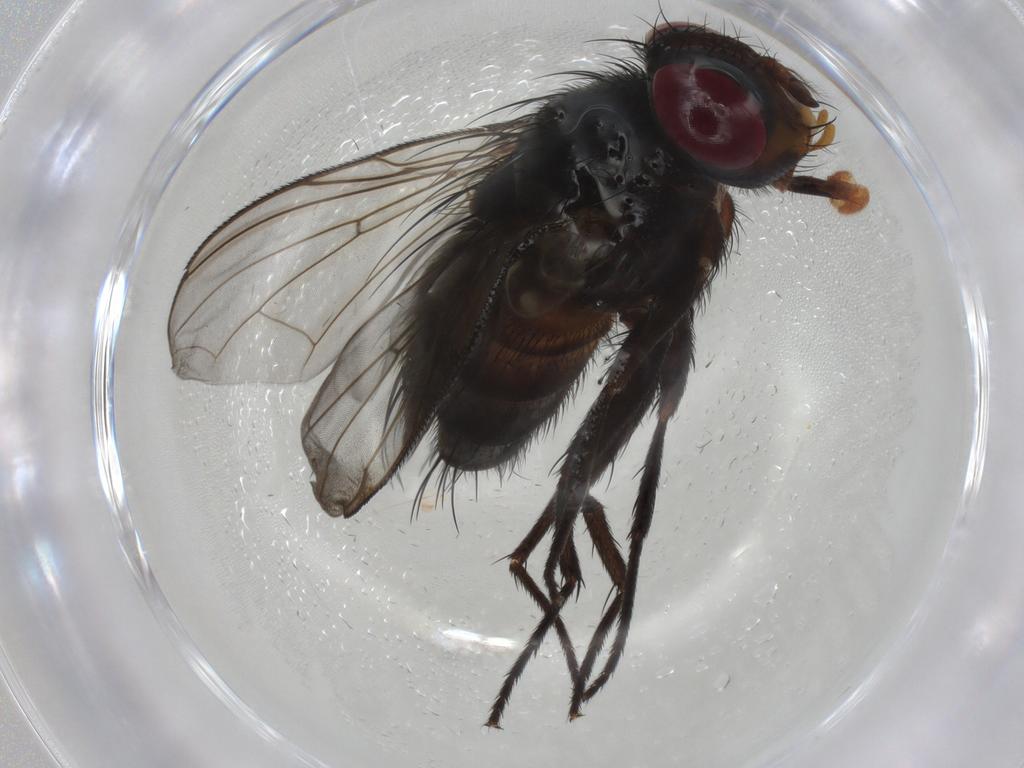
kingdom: Animalia
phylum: Arthropoda
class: Insecta
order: Diptera
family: Tachinidae
